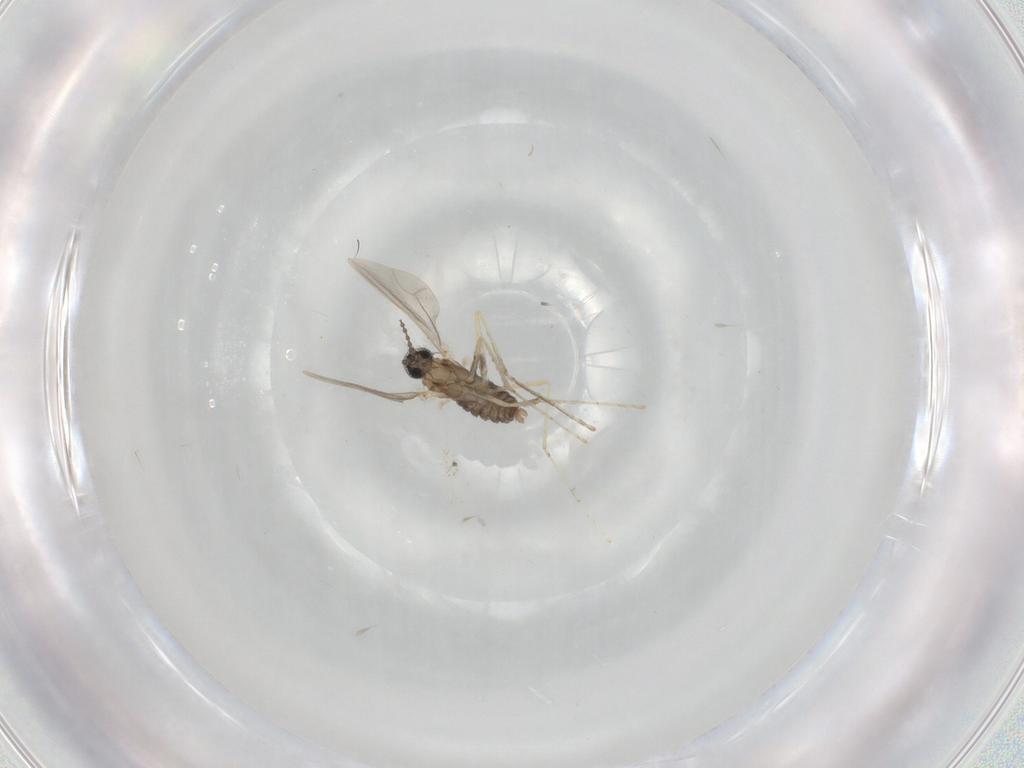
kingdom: Animalia
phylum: Arthropoda
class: Insecta
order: Diptera
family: Cecidomyiidae
